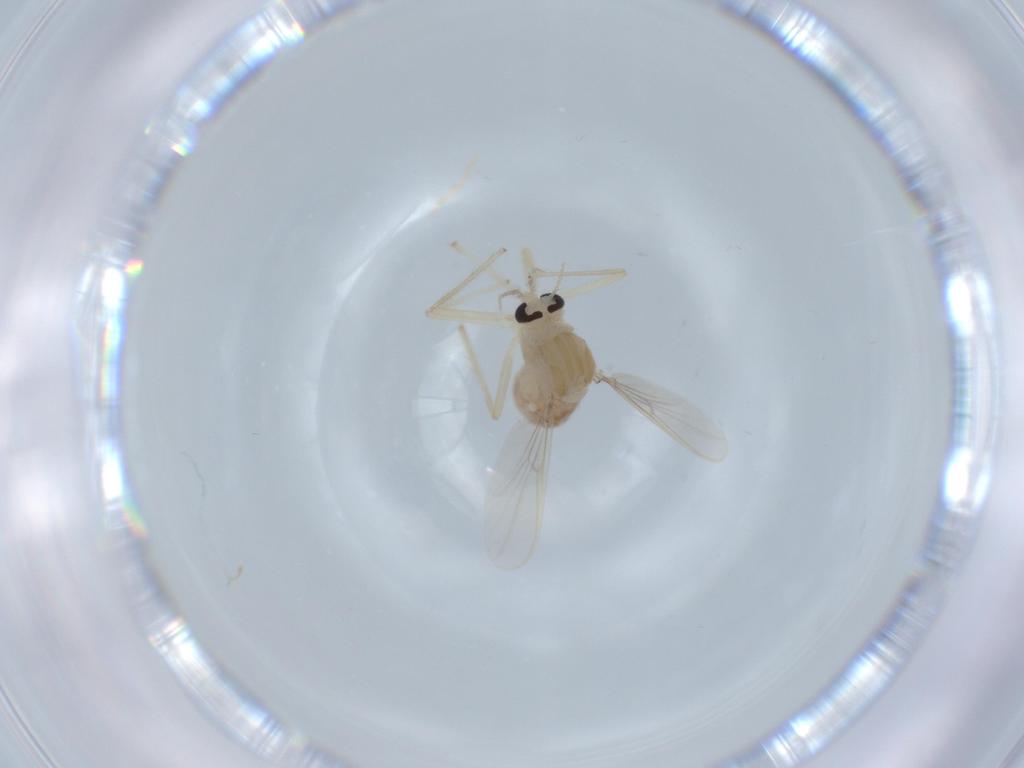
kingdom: Animalia
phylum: Arthropoda
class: Insecta
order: Diptera
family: Chironomidae
